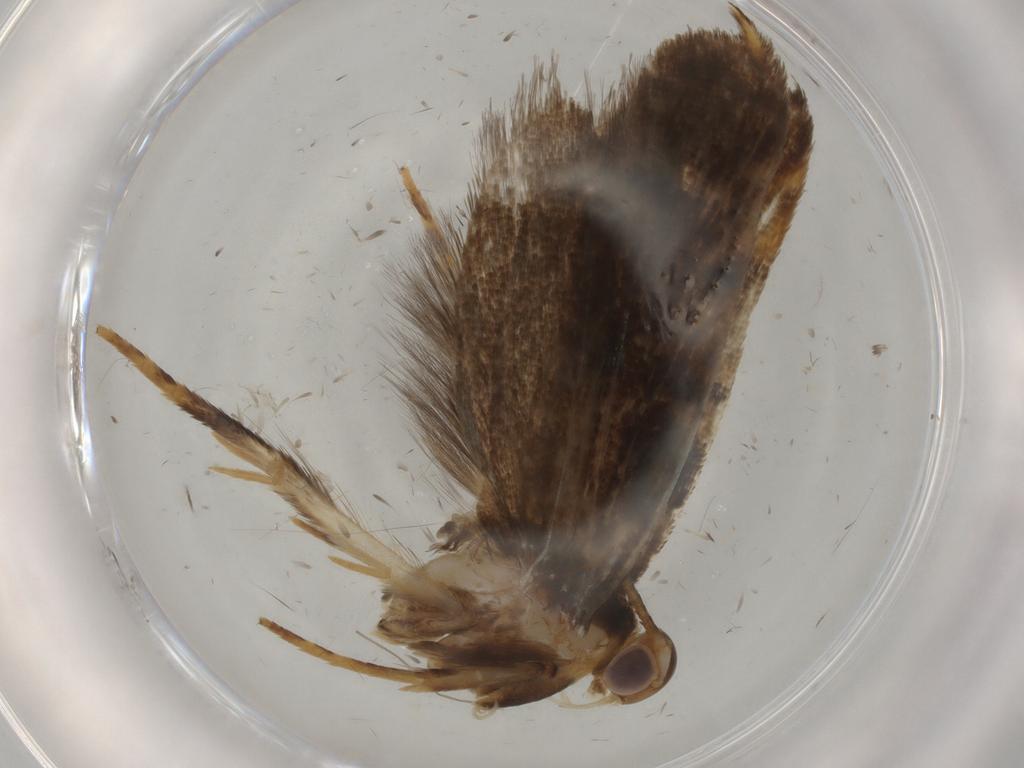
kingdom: Animalia
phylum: Arthropoda
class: Insecta
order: Lepidoptera
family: Gelechiidae
